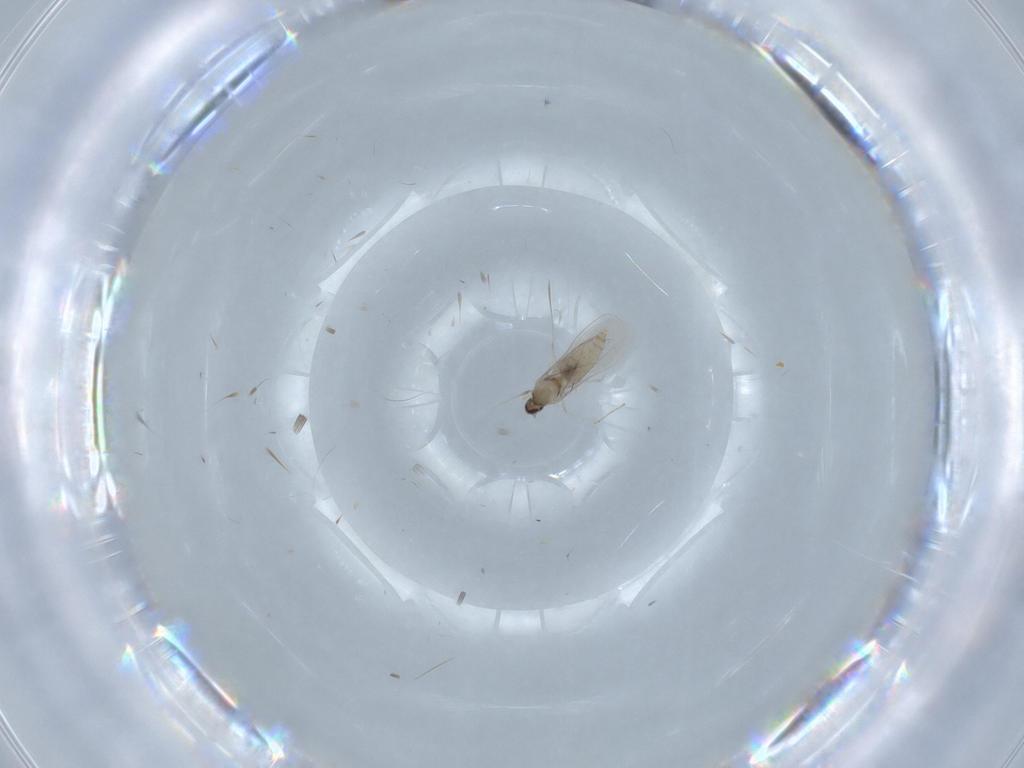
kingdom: Animalia
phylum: Arthropoda
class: Insecta
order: Diptera
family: Cecidomyiidae
